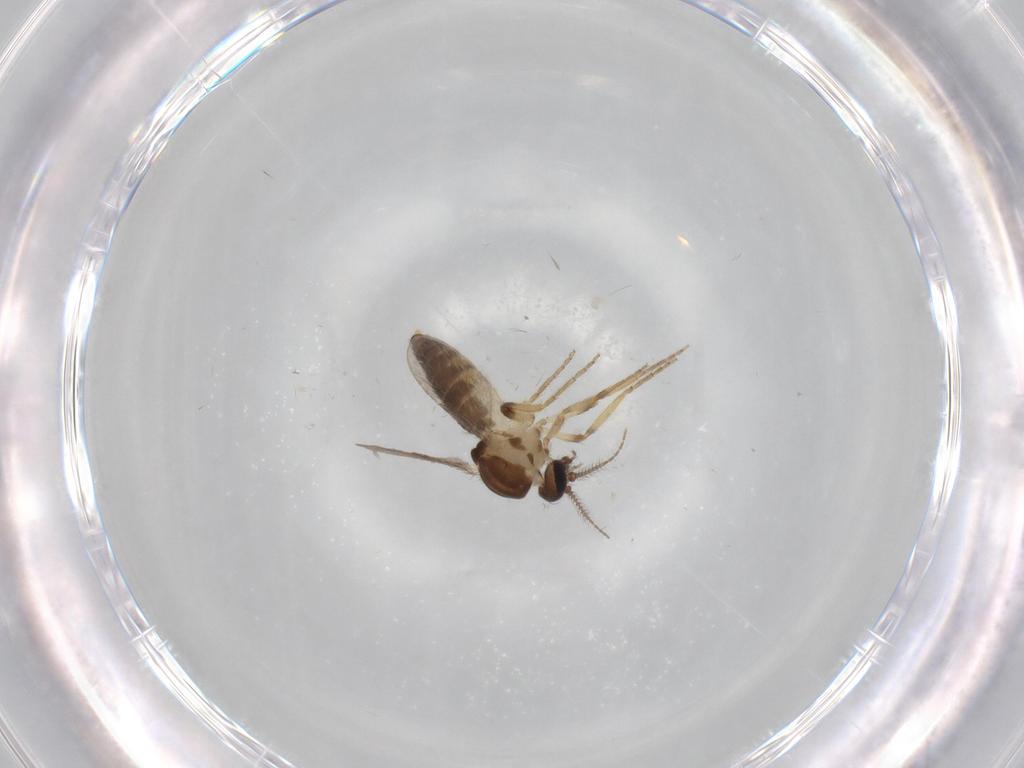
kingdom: Animalia
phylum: Arthropoda
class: Insecta
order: Diptera
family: Ceratopogonidae
